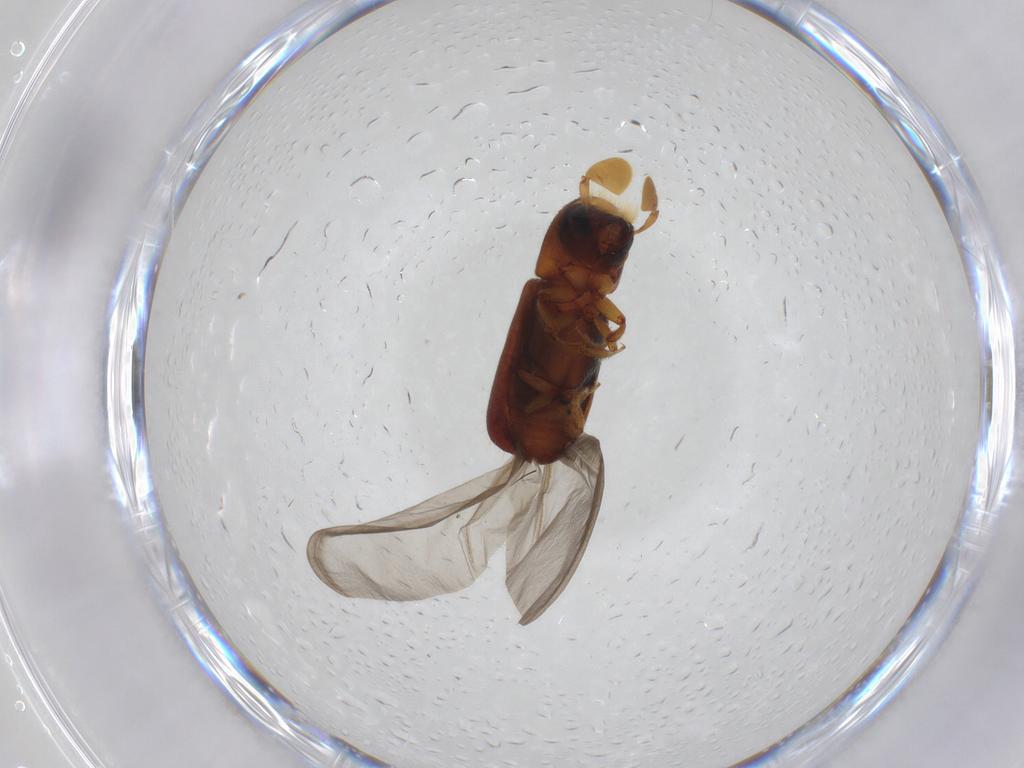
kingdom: Animalia
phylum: Arthropoda
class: Insecta
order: Coleoptera
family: Curculionidae
